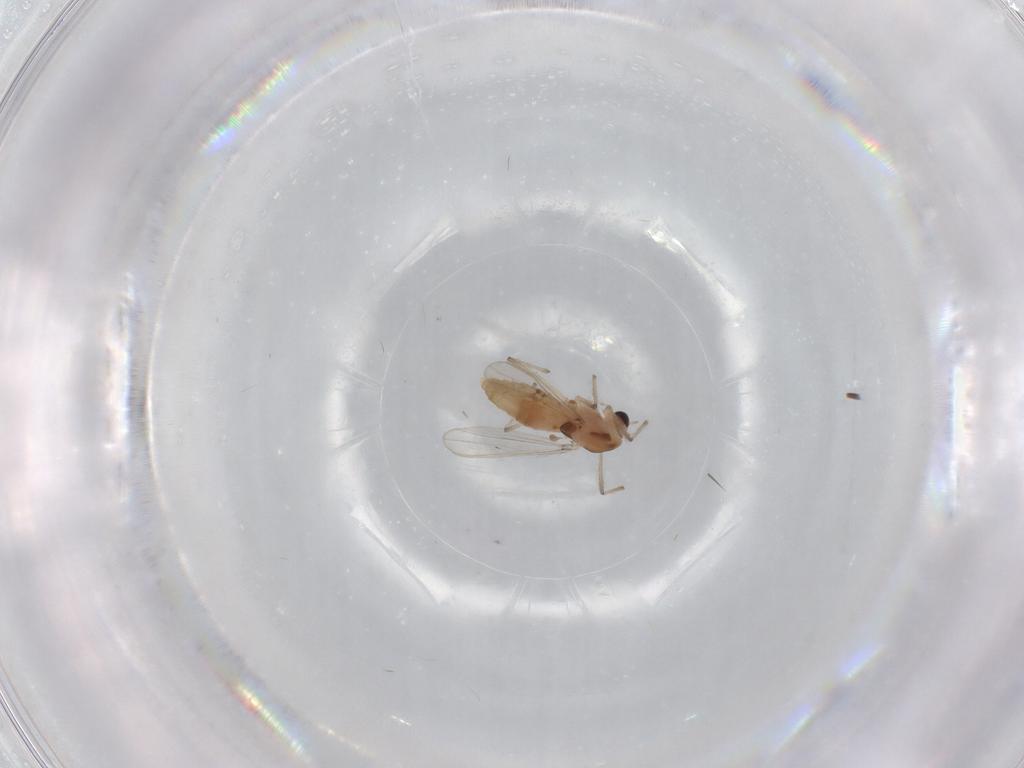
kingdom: Animalia
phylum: Arthropoda
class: Insecta
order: Diptera
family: Chironomidae
